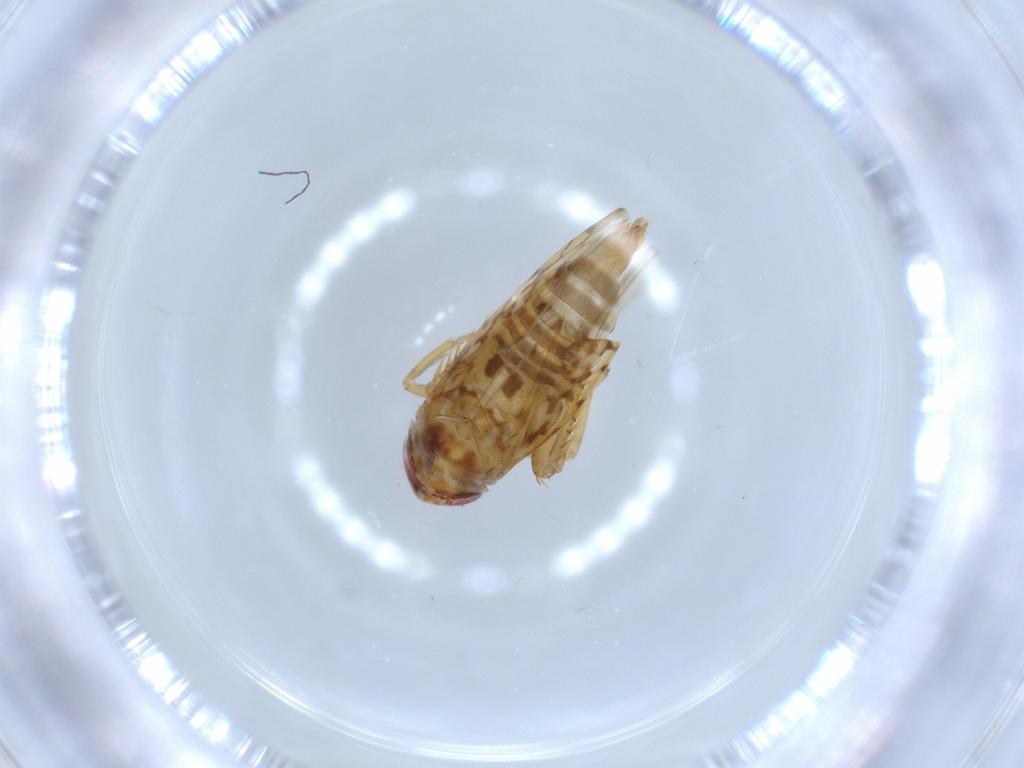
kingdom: Animalia
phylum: Arthropoda
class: Insecta
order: Hemiptera
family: Cicadellidae
